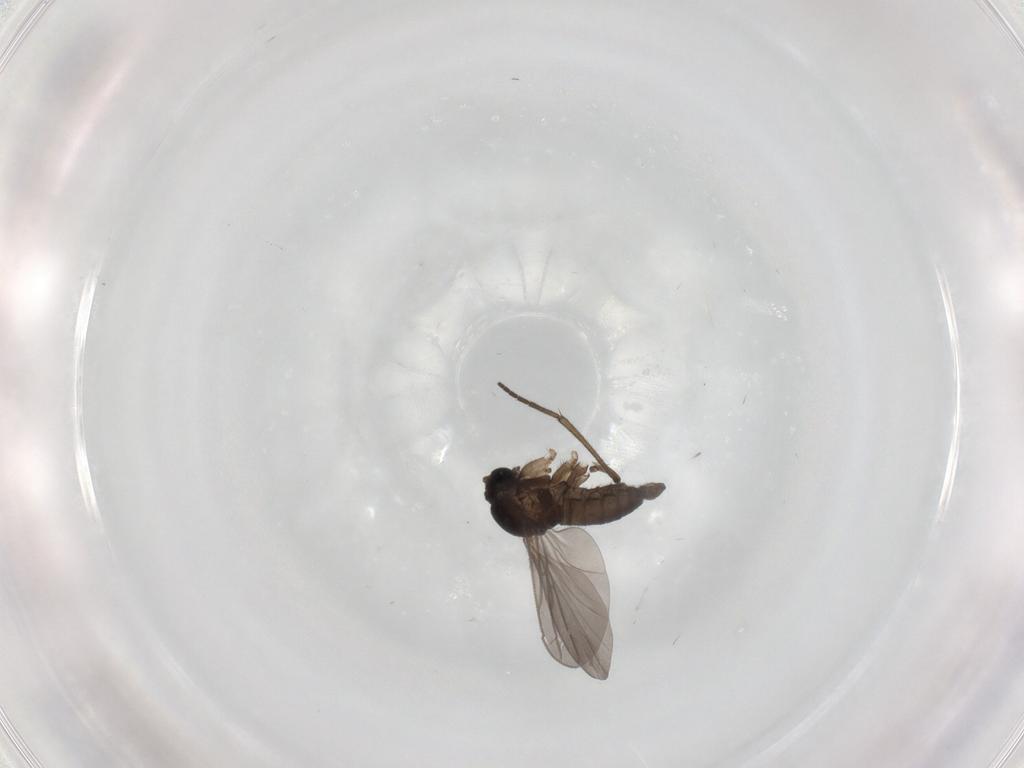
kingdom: Animalia
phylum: Arthropoda
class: Insecta
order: Diptera
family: Sciaridae
